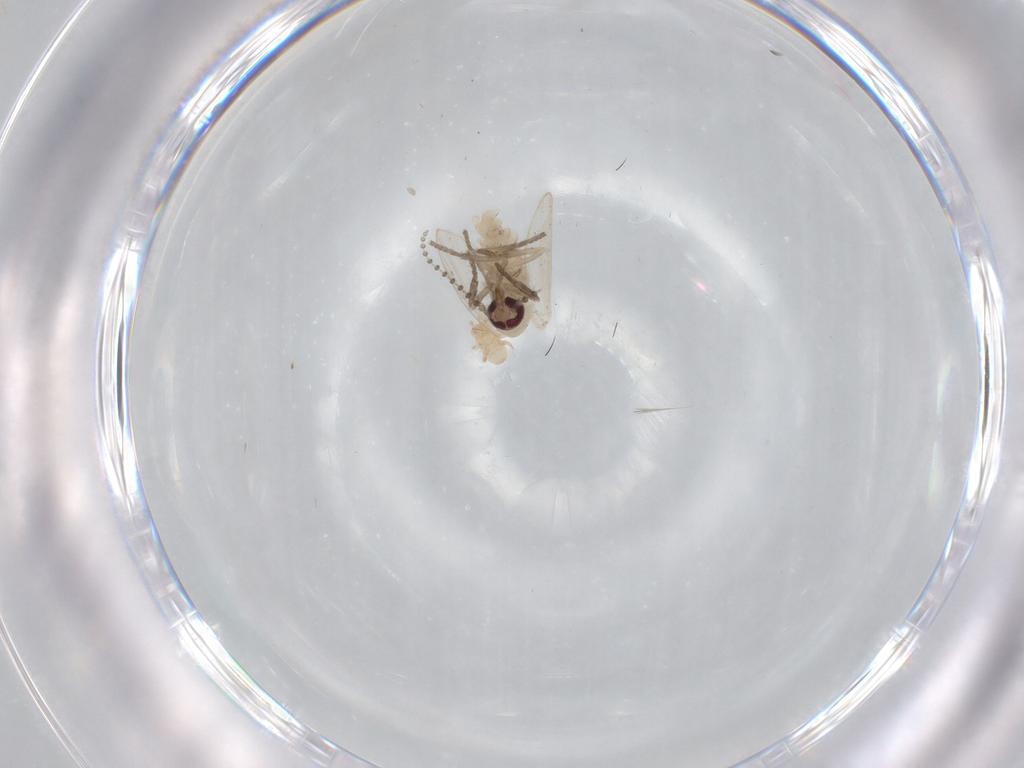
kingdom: Animalia
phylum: Arthropoda
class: Insecta
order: Diptera
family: Psychodidae
